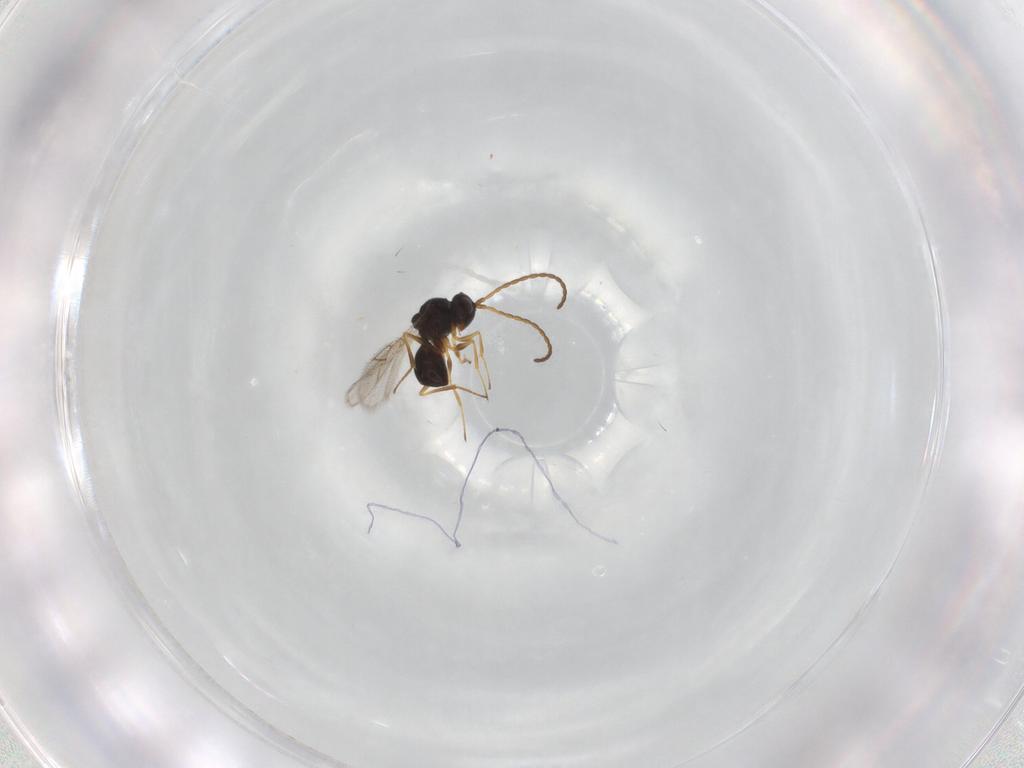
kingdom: Animalia
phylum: Arthropoda
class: Insecta
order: Hymenoptera
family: Figitidae
